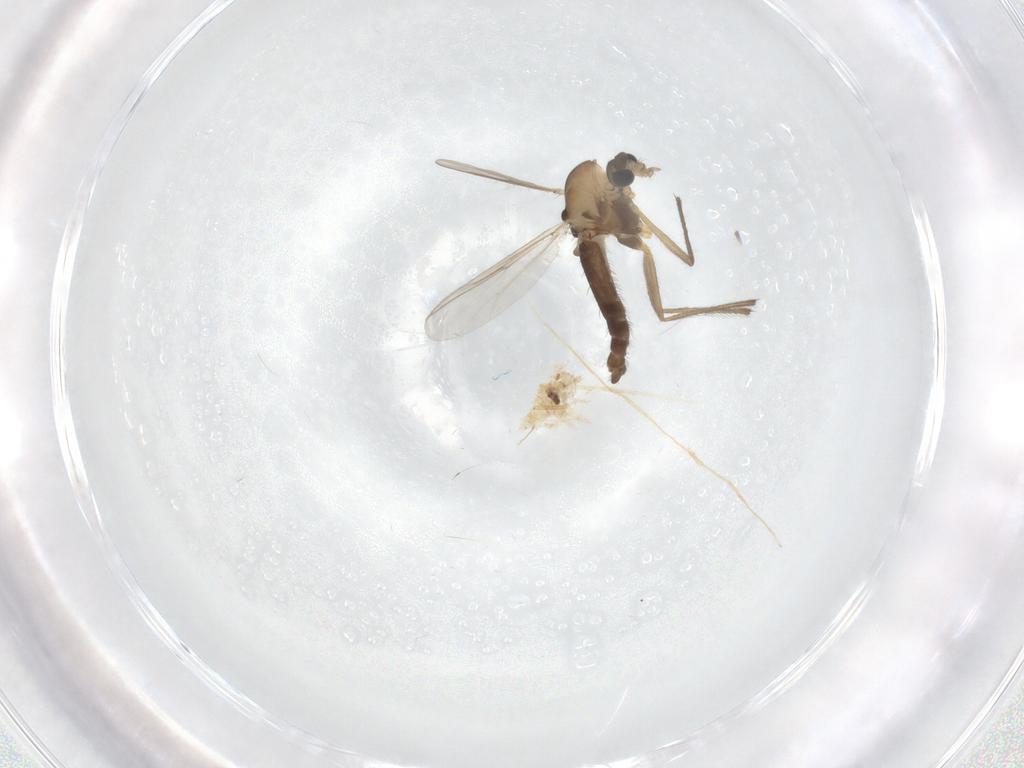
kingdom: Animalia
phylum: Arthropoda
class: Insecta
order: Diptera
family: Chironomidae
